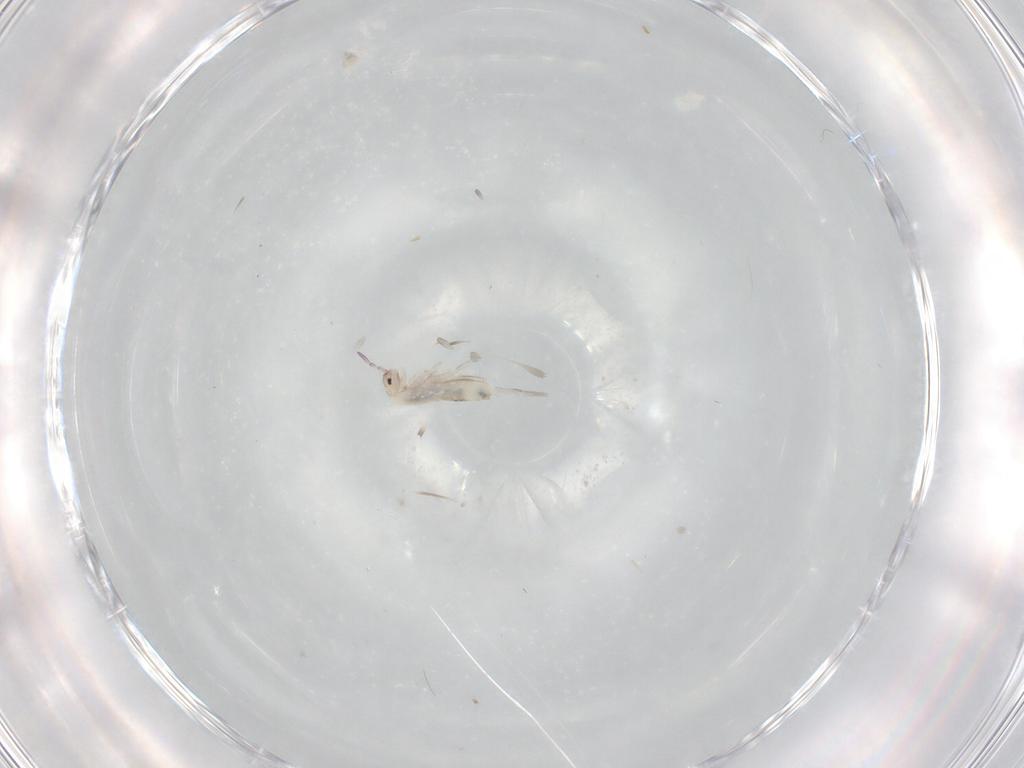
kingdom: Animalia
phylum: Arthropoda
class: Collembola
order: Entomobryomorpha
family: Entomobryidae
